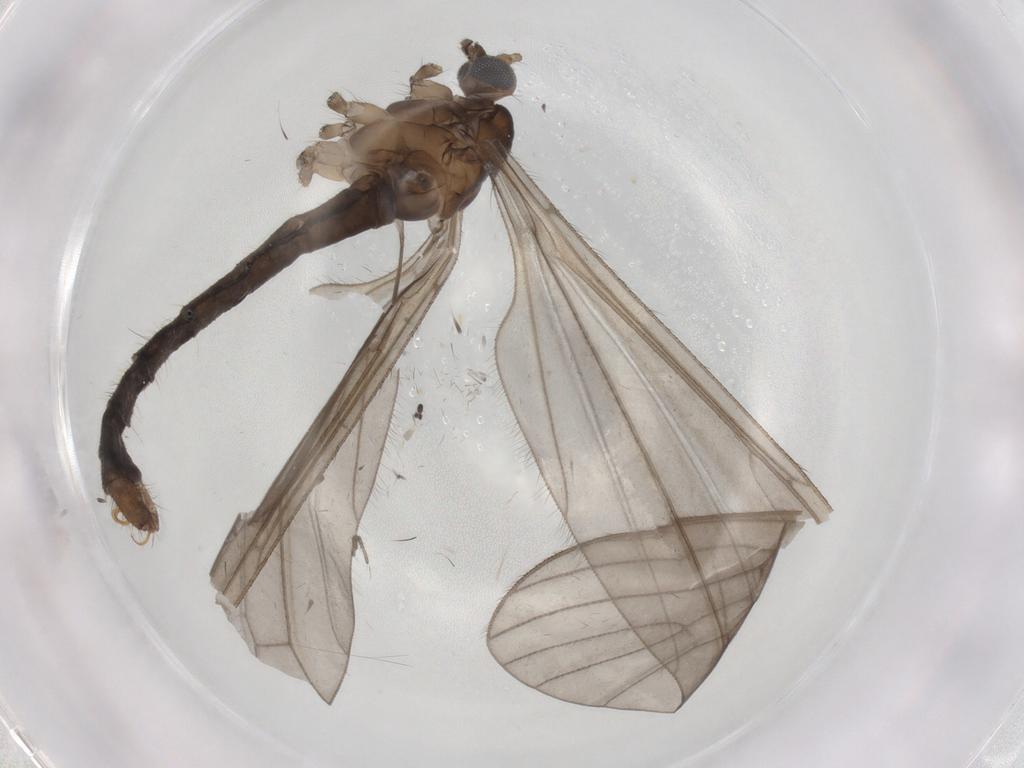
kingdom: Animalia
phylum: Arthropoda
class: Insecta
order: Diptera
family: Limoniidae
